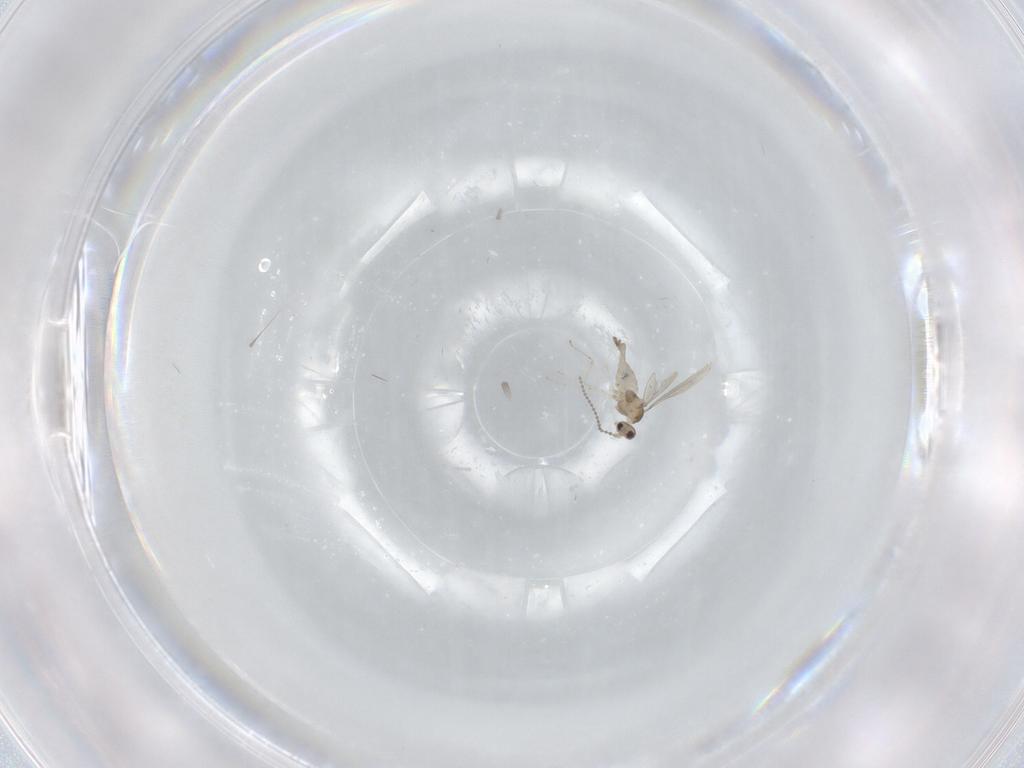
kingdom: Animalia
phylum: Arthropoda
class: Insecta
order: Diptera
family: Cecidomyiidae
